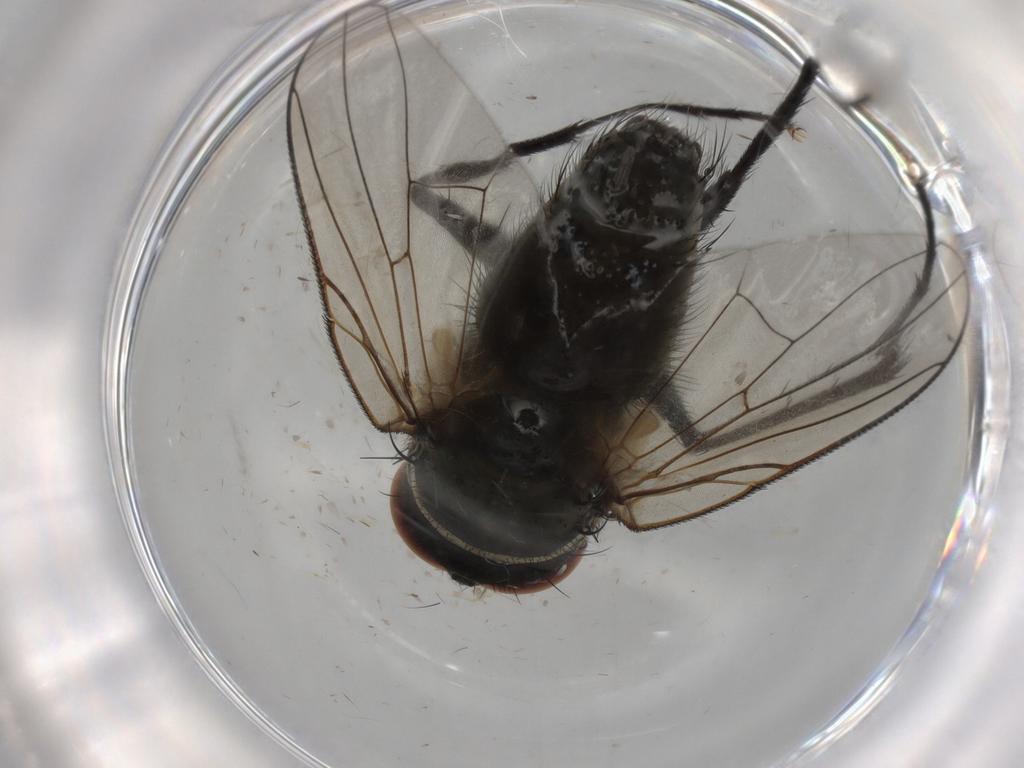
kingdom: Animalia
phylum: Arthropoda
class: Insecta
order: Diptera
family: Muscidae
